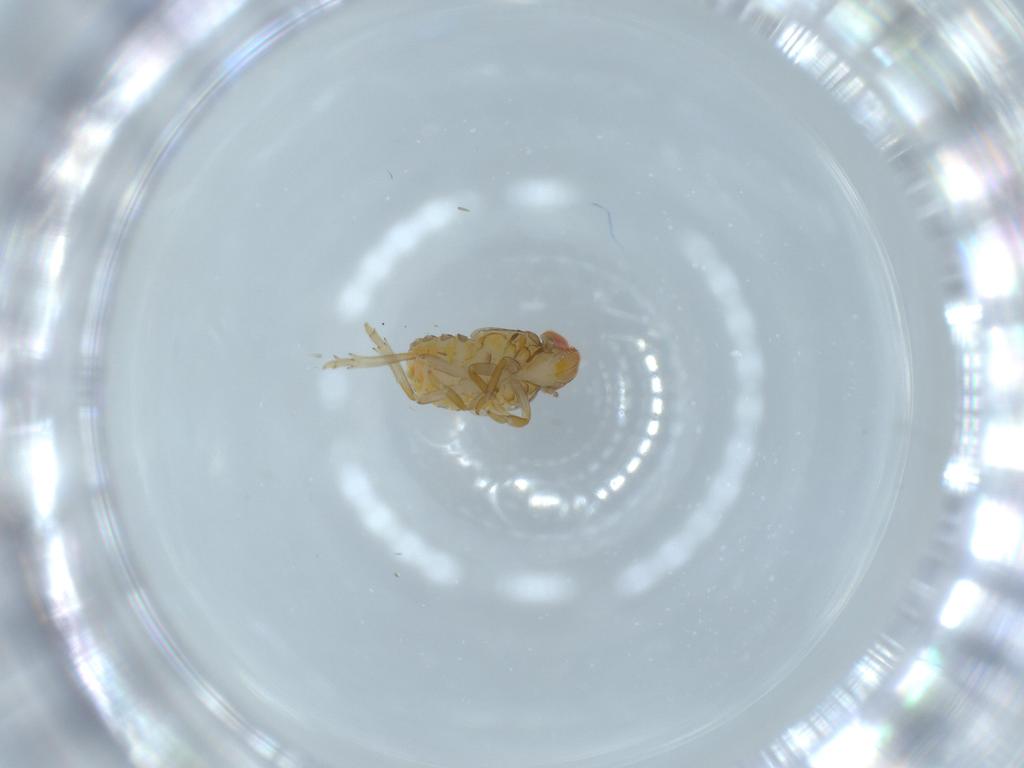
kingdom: Animalia
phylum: Arthropoda
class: Insecta
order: Hemiptera
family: Fulgoroidea_incertae_sedis
